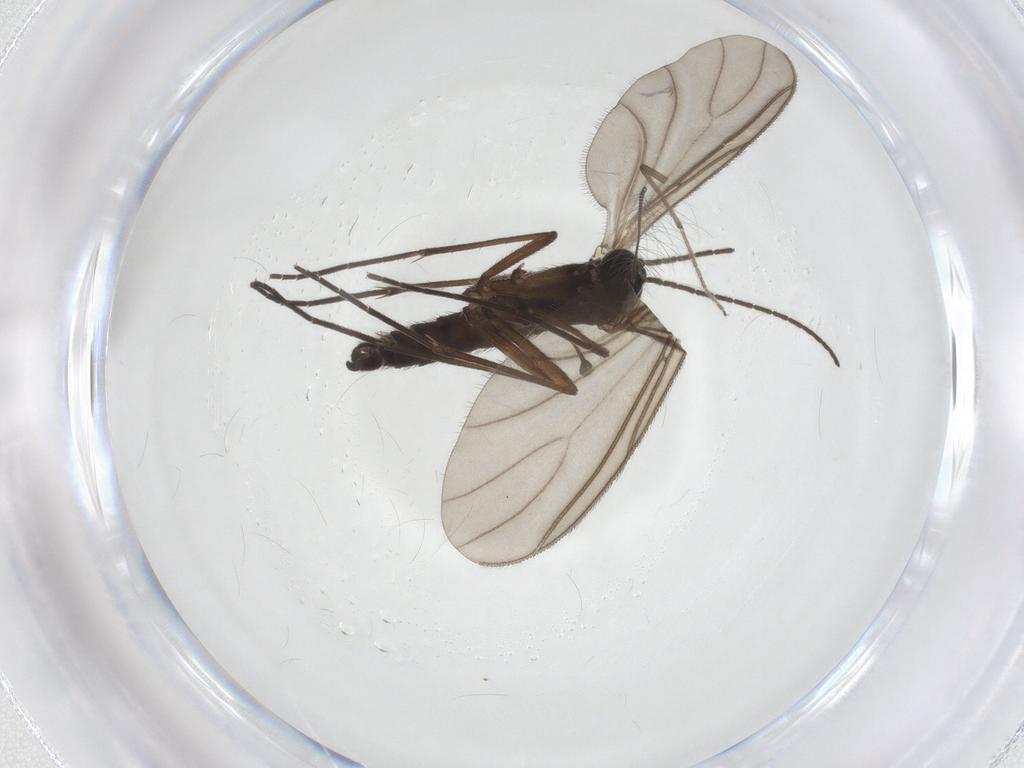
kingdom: Animalia
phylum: Arthropoda
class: Insecta
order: Diptera
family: Sciaridae
